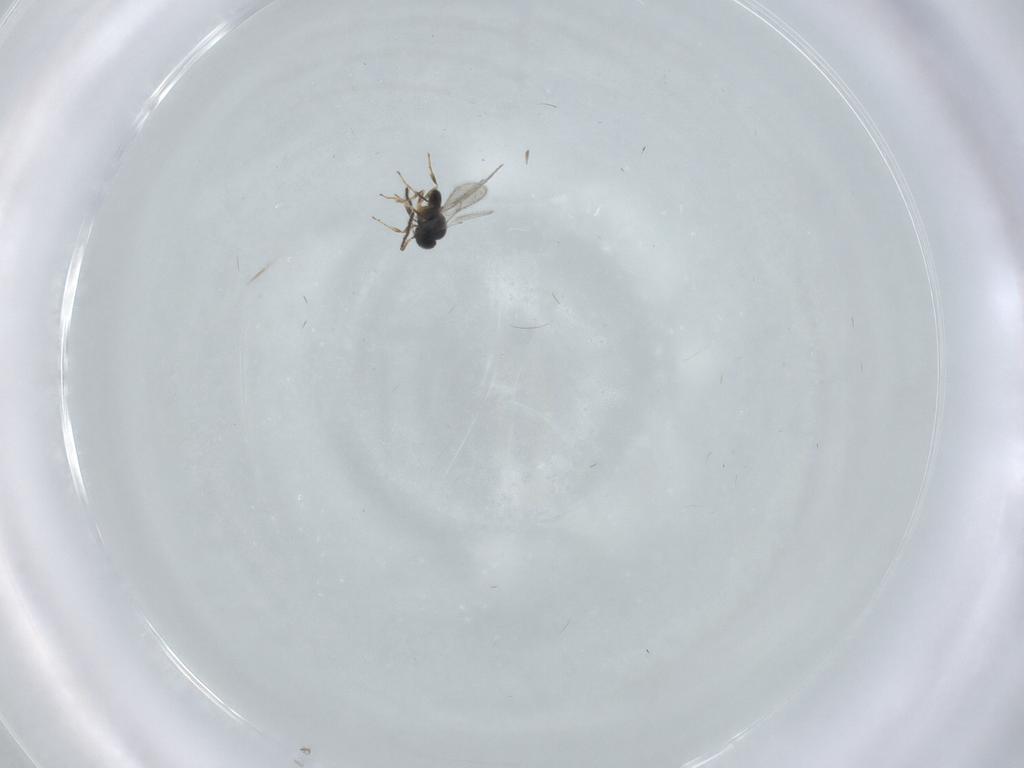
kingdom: Animalia
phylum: Arthropoda
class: Insecta
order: Hymenoptera
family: Scelionidae
